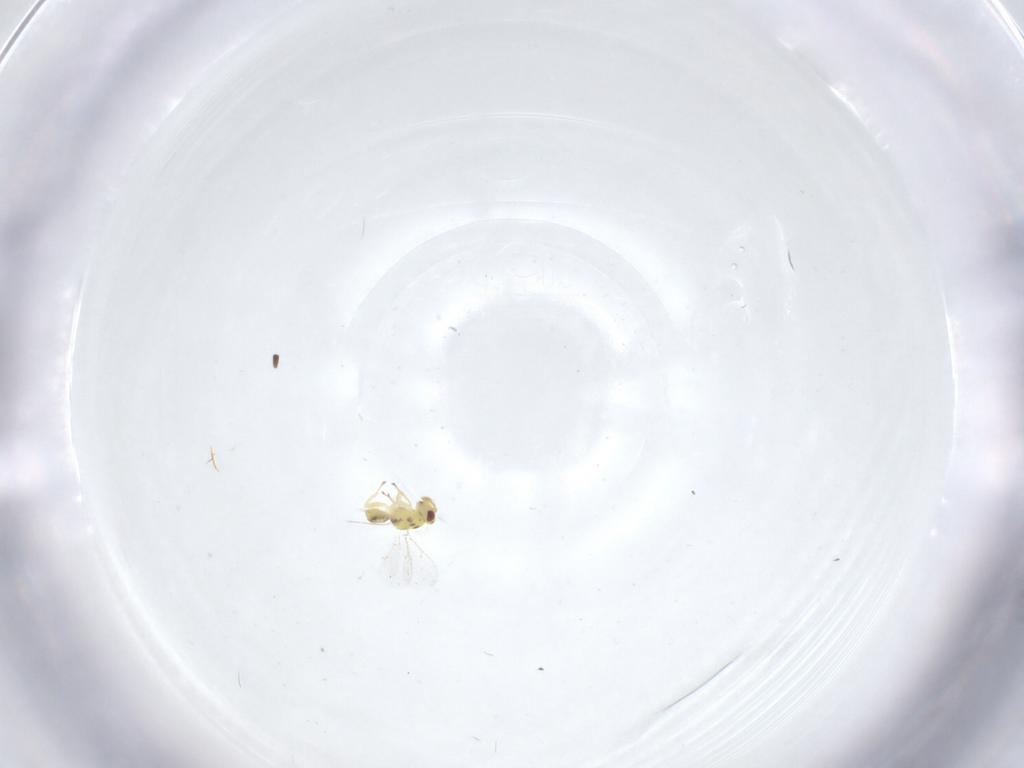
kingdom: Animalia
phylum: Arthropoda
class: Insecta
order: Hymenoptera
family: Eulophidae
